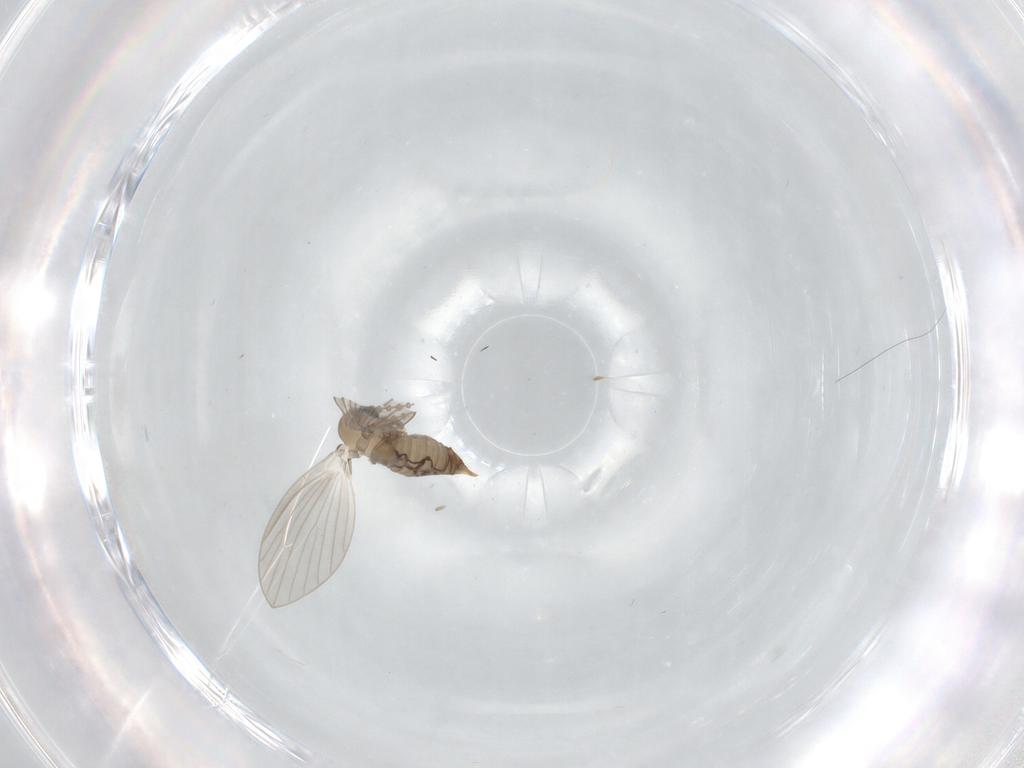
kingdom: Animalia
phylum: Arthropoda
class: Insecta
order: Diptera
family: Psychodidae
